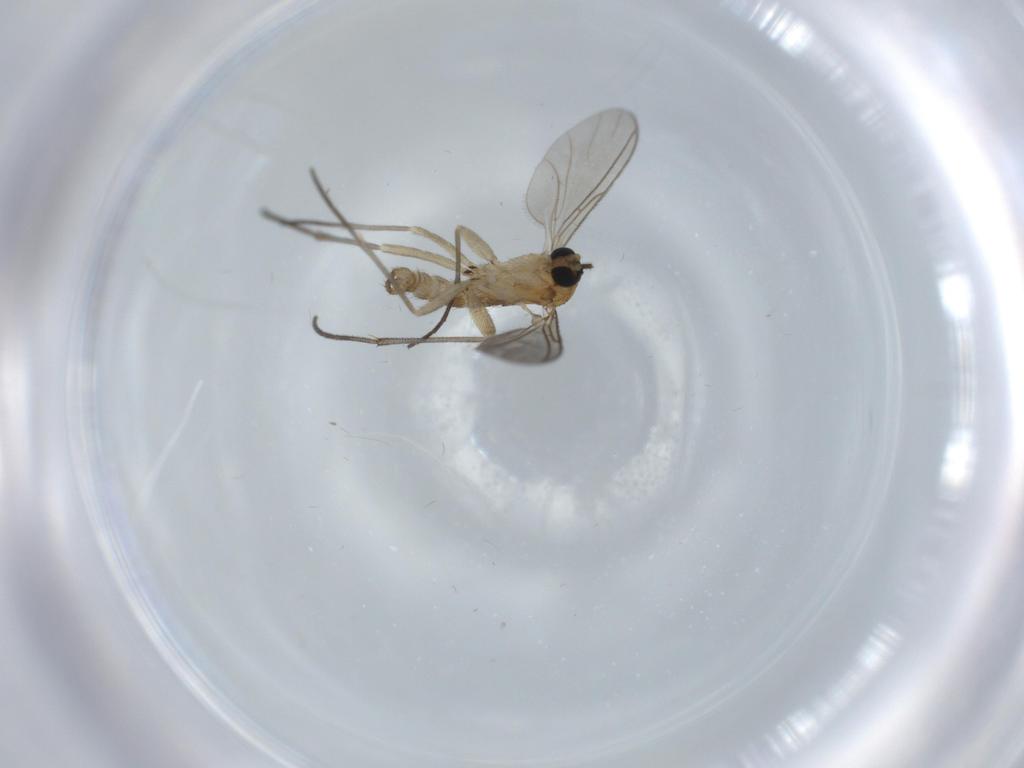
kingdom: Animalia
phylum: Arthropoda
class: Insecta
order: Diptera
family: Sciaridae
